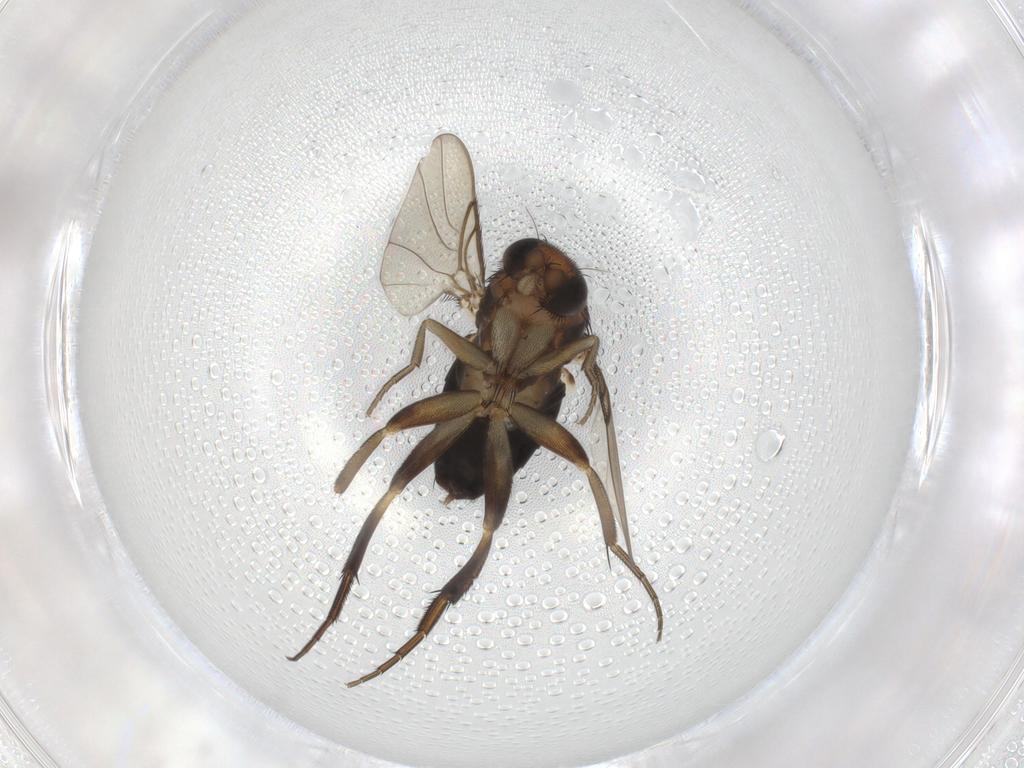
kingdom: Animalia
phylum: Arthropoda
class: Insecta
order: Diptera
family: Phoridae
